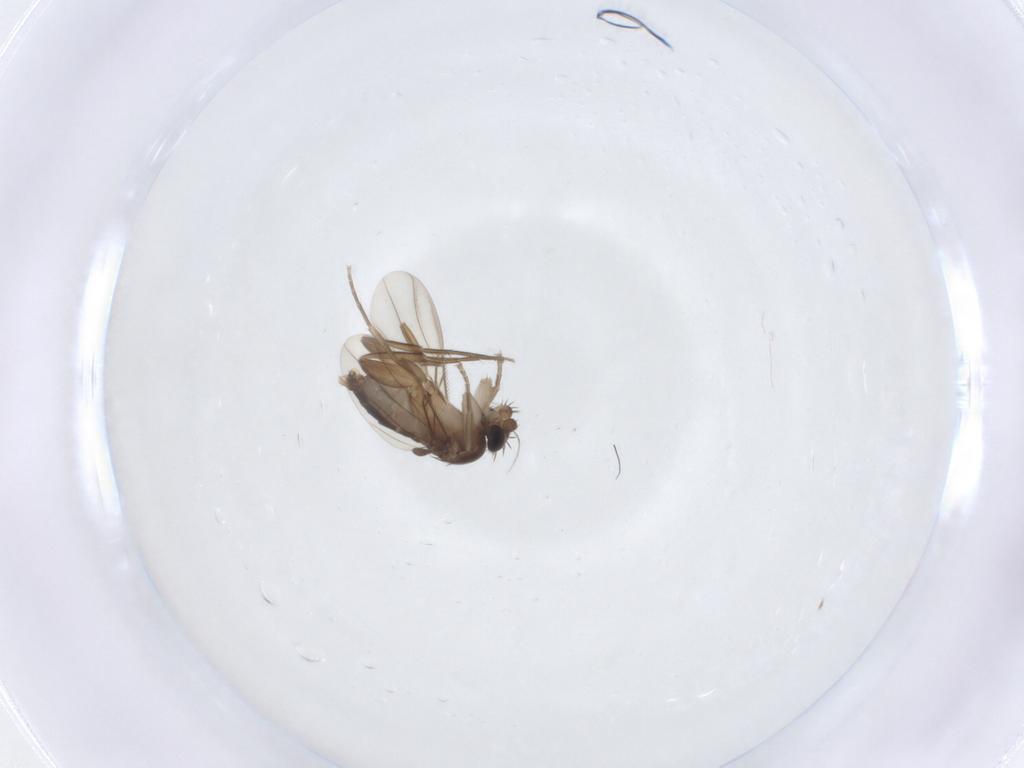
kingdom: Animalia
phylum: Arthropoda
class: Insecta
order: Diptera
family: Phoridae
